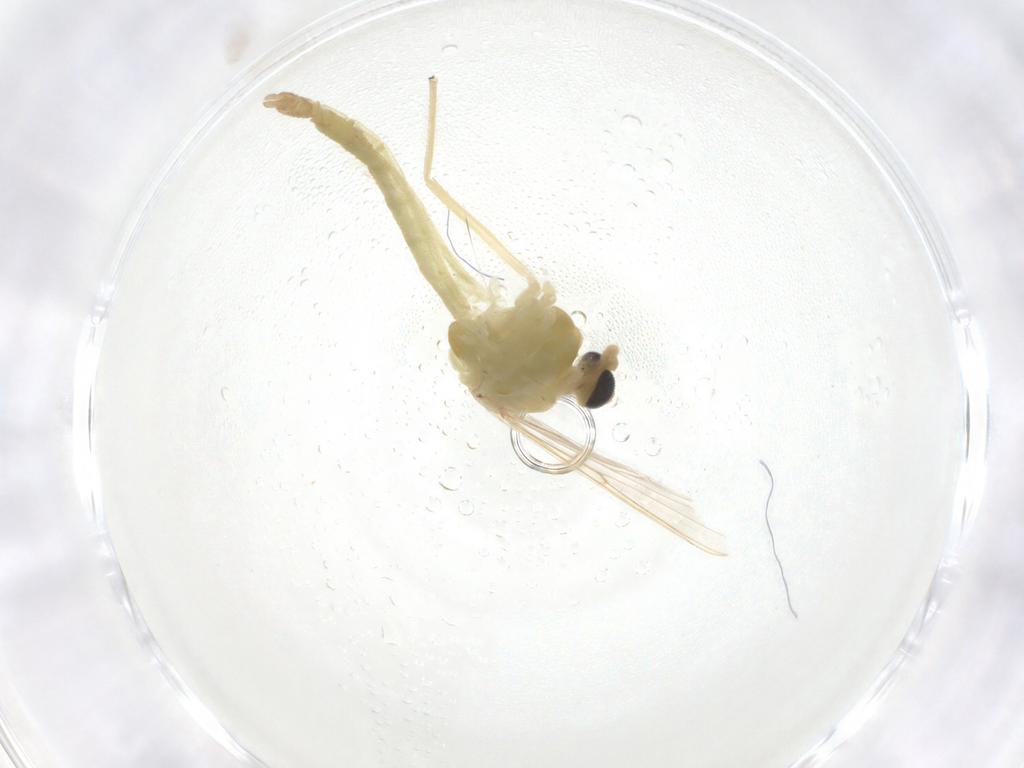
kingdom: Animalia
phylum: Arthropoda
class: Insecta
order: Diptera
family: Chironomidae
